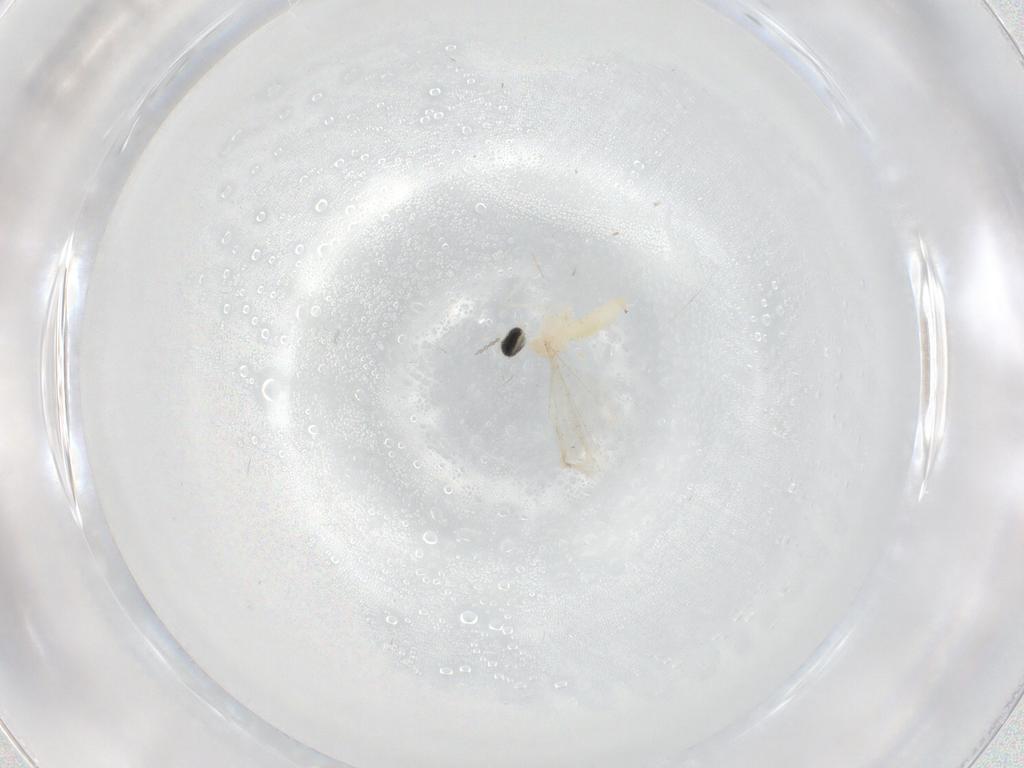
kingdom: Animalia
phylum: Arthropoda
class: Insecta
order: Diptera
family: Cecidomyiidae
